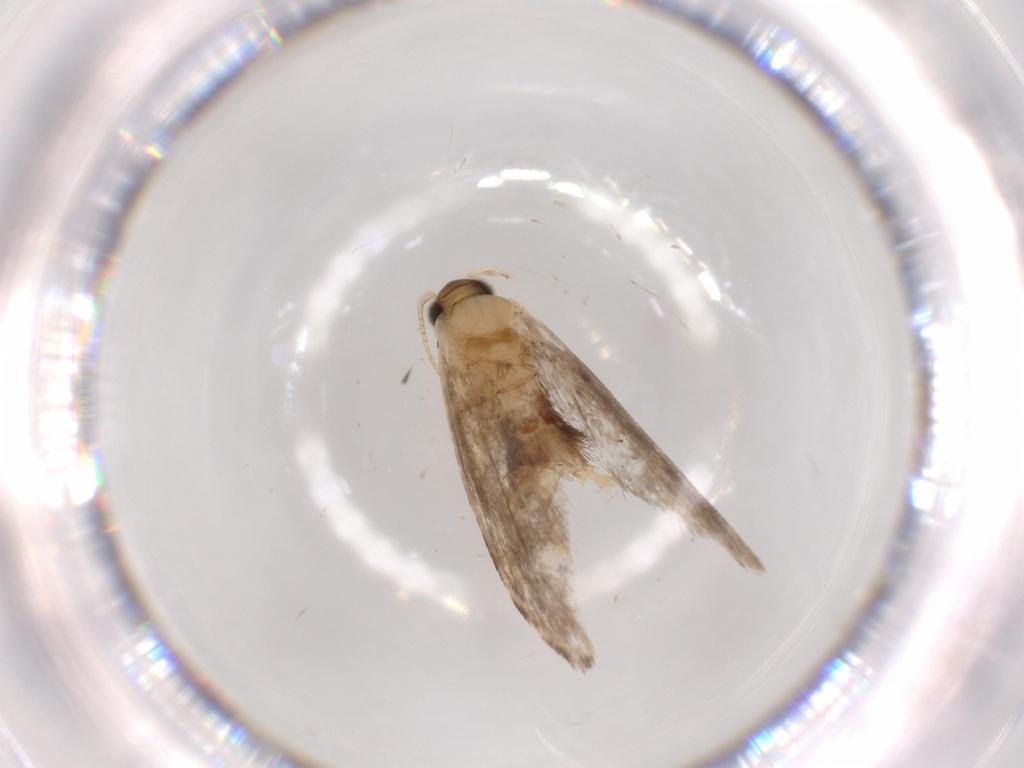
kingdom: Animalia
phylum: Arthropoda
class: Insecta
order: Lepidoptera
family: Tineidae
